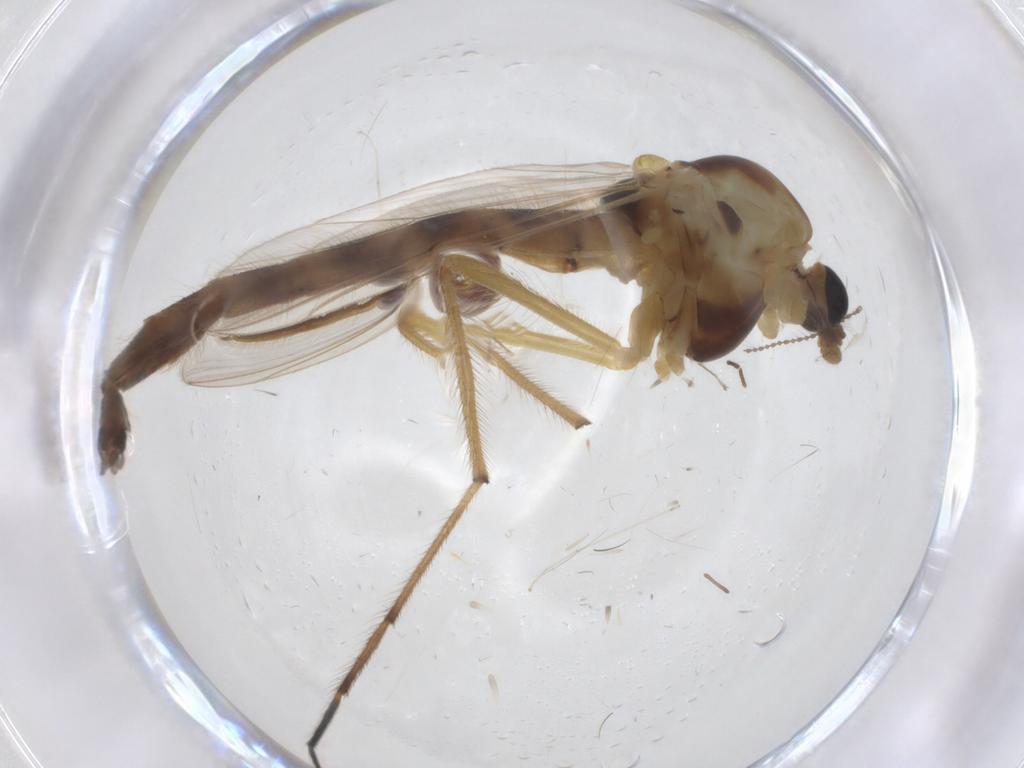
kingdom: Animalia
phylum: Arthropoda
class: Insecta
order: Diptera
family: Chironomidae
